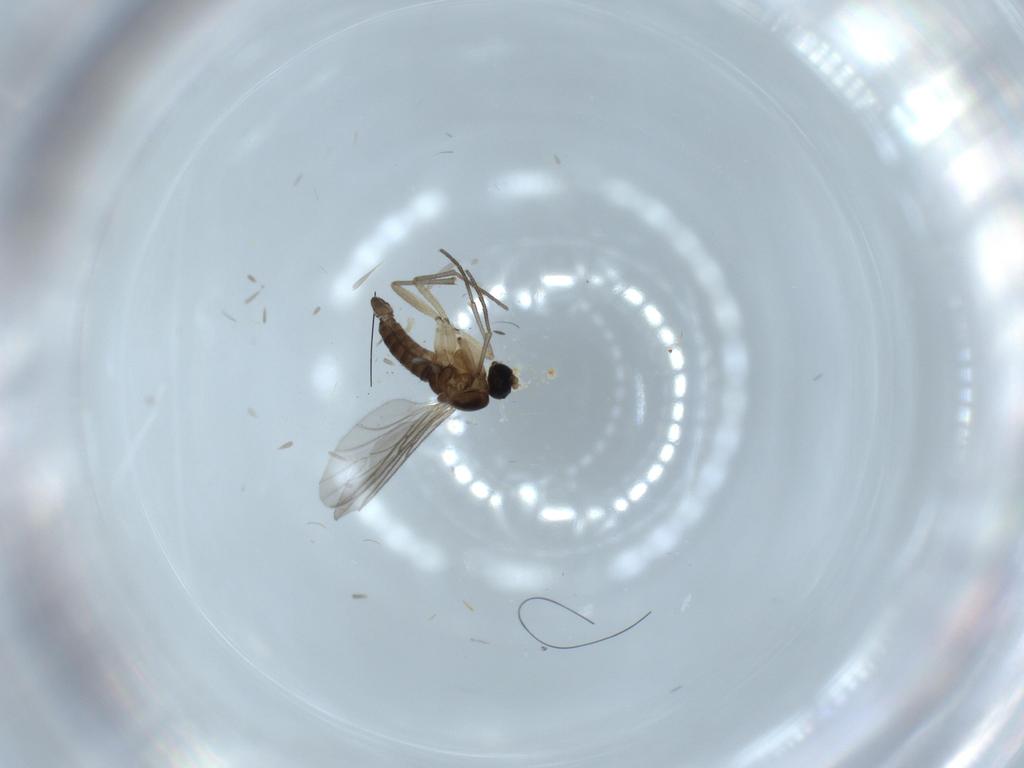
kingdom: Animalia
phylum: Arthropoda
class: Insecta
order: Diptera
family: Sciaridae
